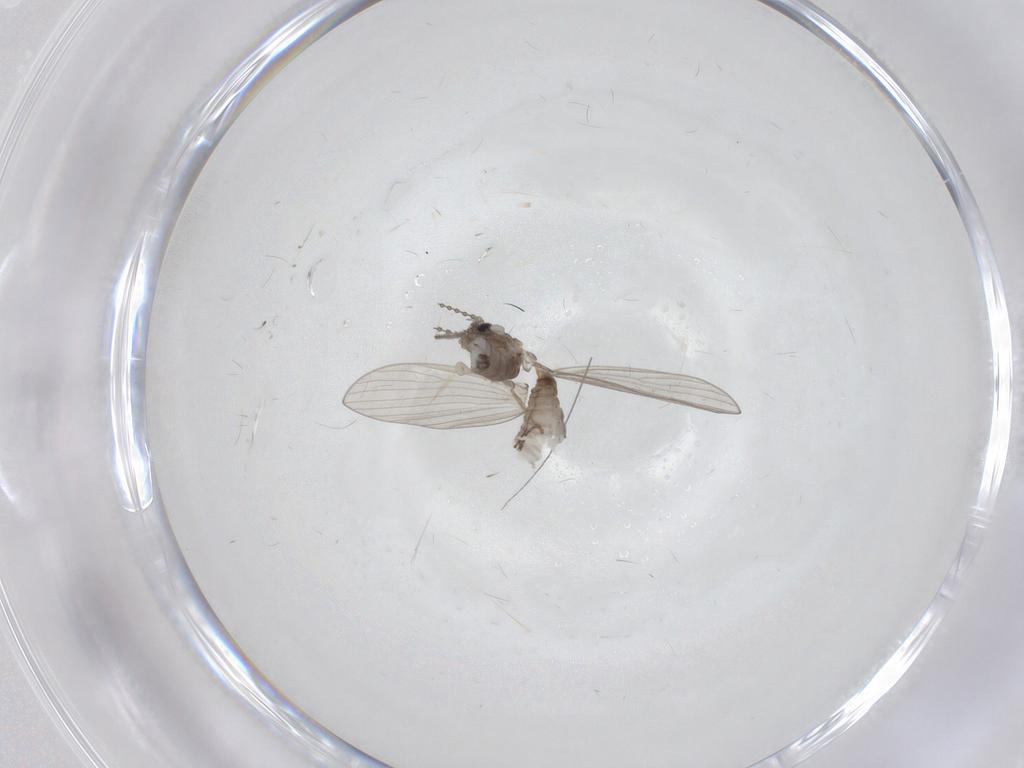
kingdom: Animalia
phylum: Arthropoda
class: Insecta
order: Diptera
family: Psychodidae
